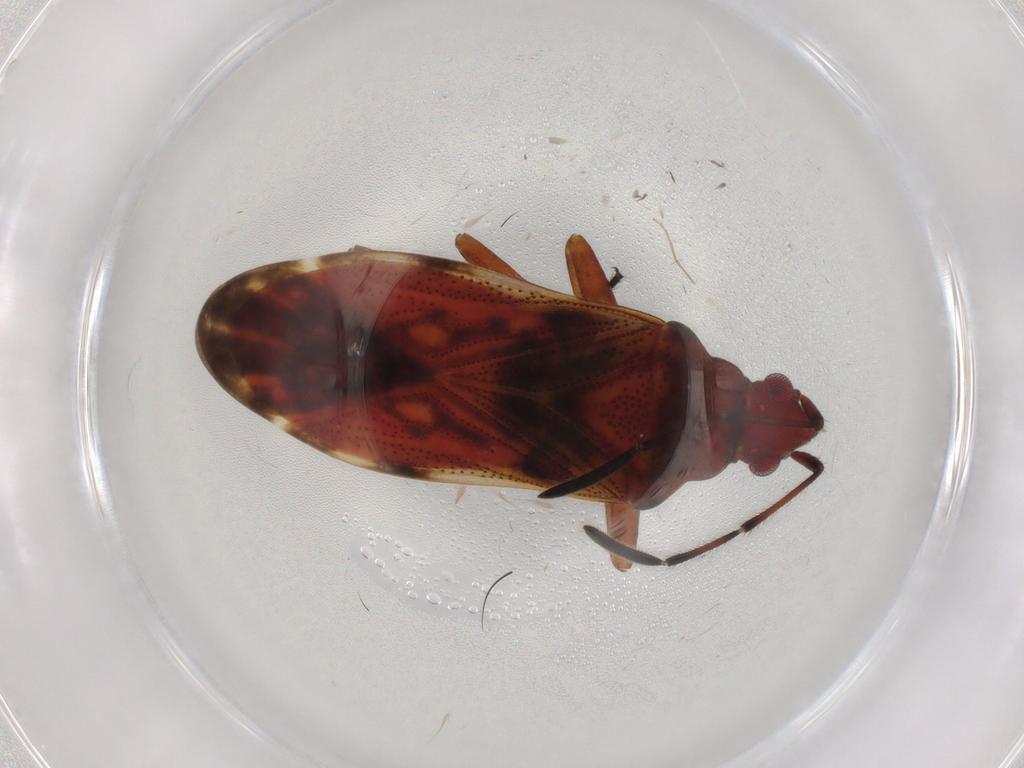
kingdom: Animalia
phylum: Arthropoda
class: Insecta
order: Hemiptera
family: Rhyparochromidae
